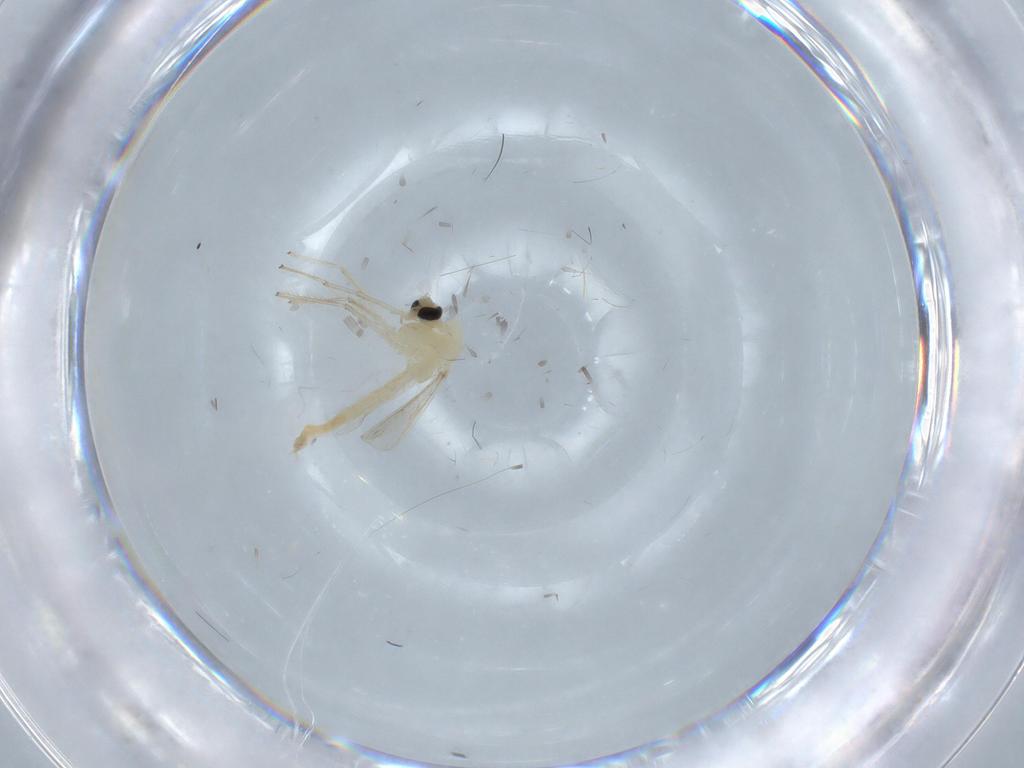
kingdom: Animalia
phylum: Arthropoda
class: Insecta
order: Diptera
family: Chironomidae
